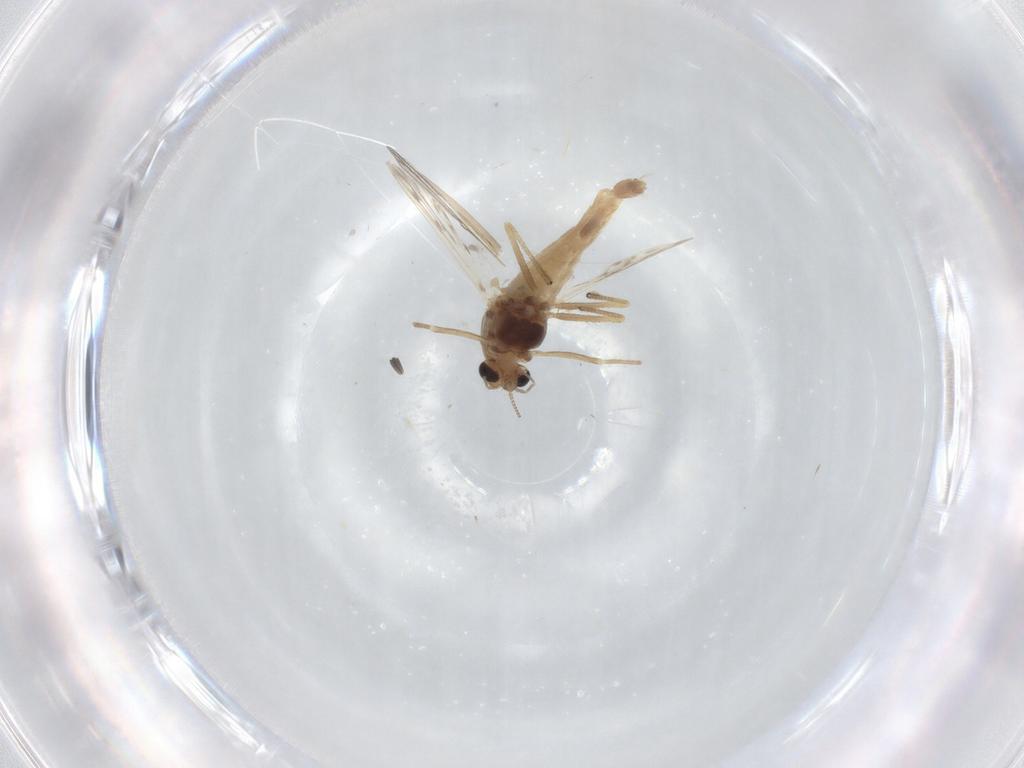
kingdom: Animalia
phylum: Arthropoda
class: Insecta
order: Diptera
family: Chironomidae
